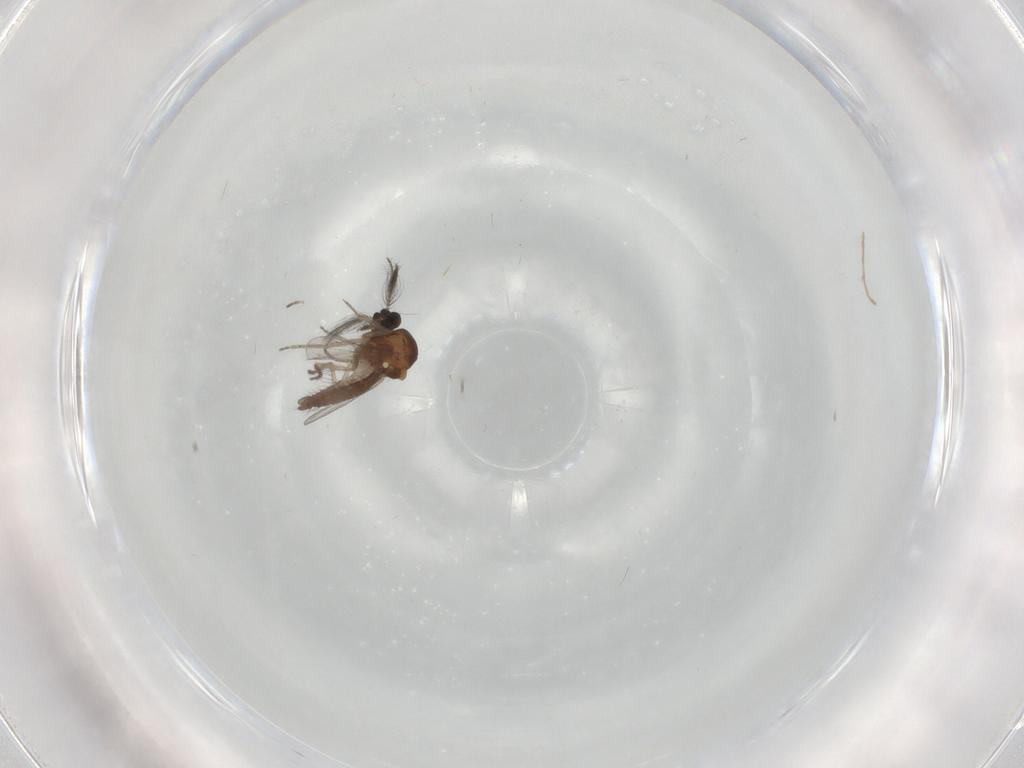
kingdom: Animalia
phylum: Arthropoda
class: Insecta
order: Diptera
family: Chironomidae
